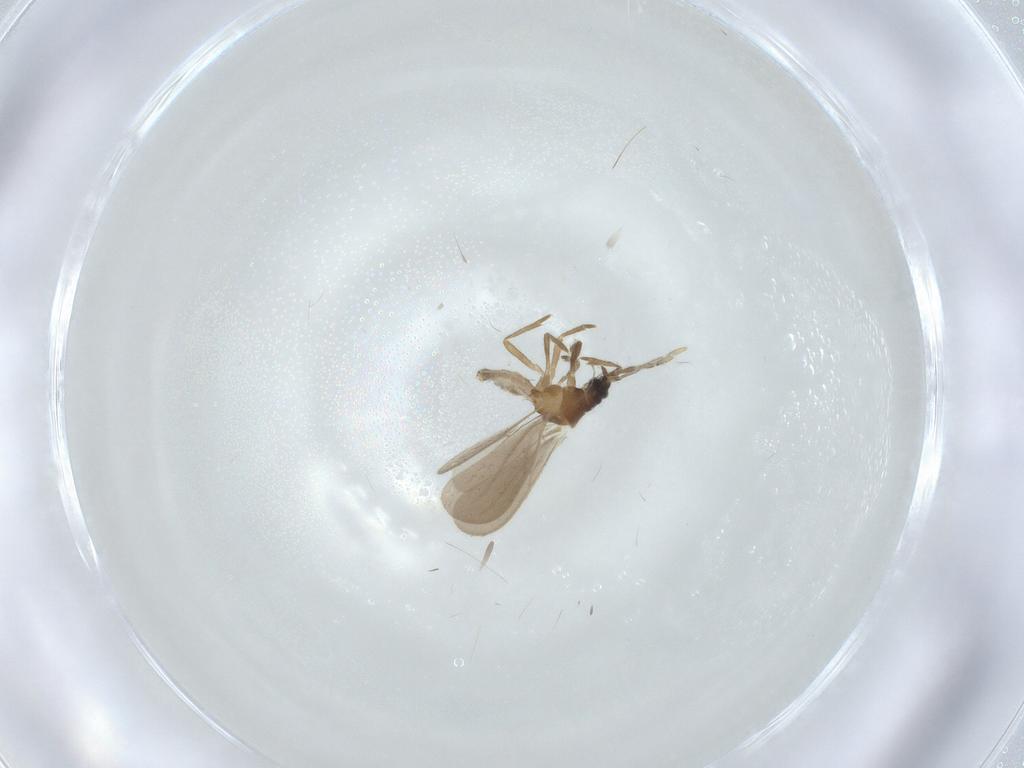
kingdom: Animalia
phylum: Arthropoda
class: Insecta
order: Diptera
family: Cecidomyiidae
